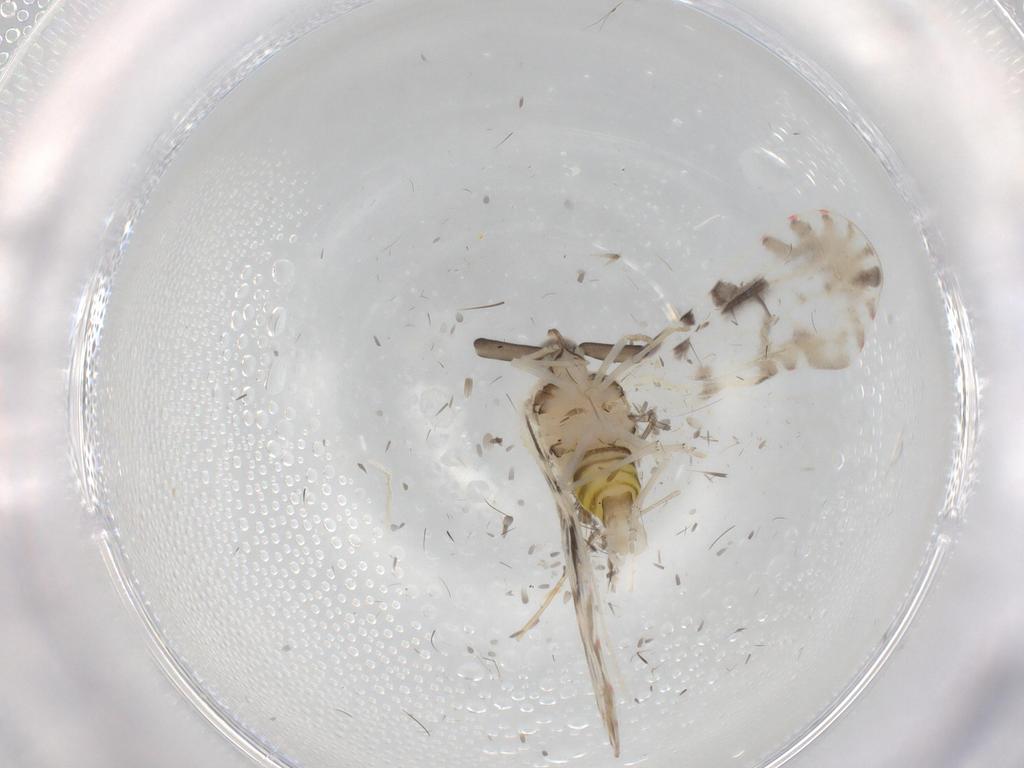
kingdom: Animalia
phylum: Arthropoda
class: Insecta
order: Hemiptera
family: Derbidae
